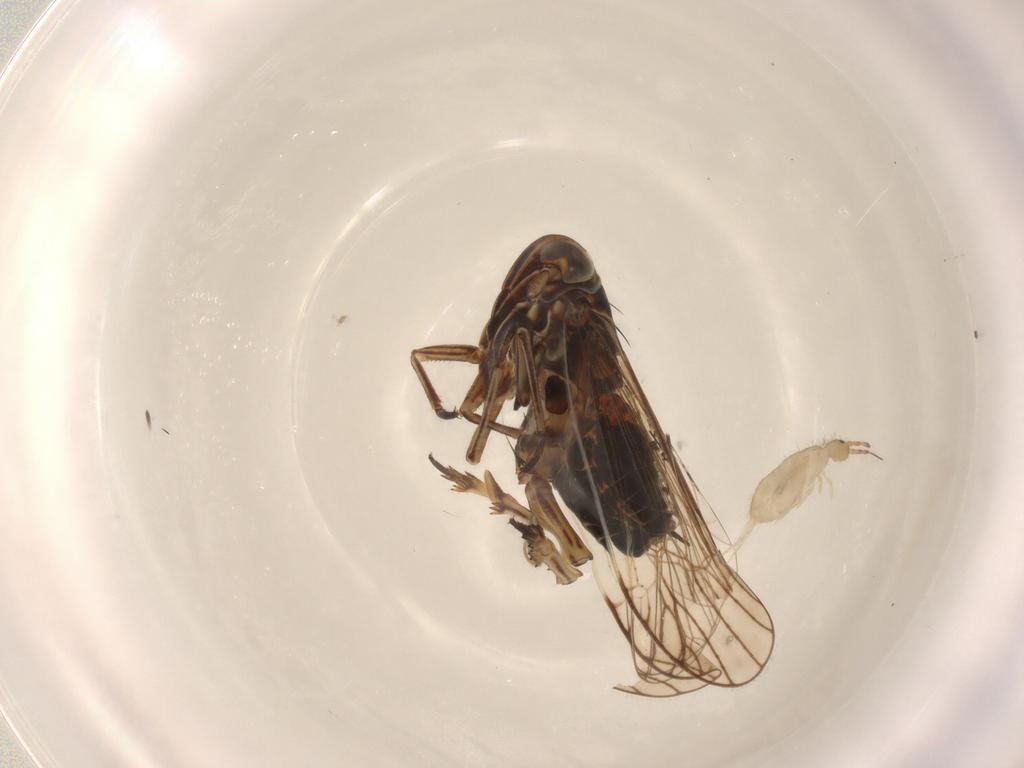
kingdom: Animalia
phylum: Arthropoda
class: Insecta
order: Hemiptera
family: Delphacidae
